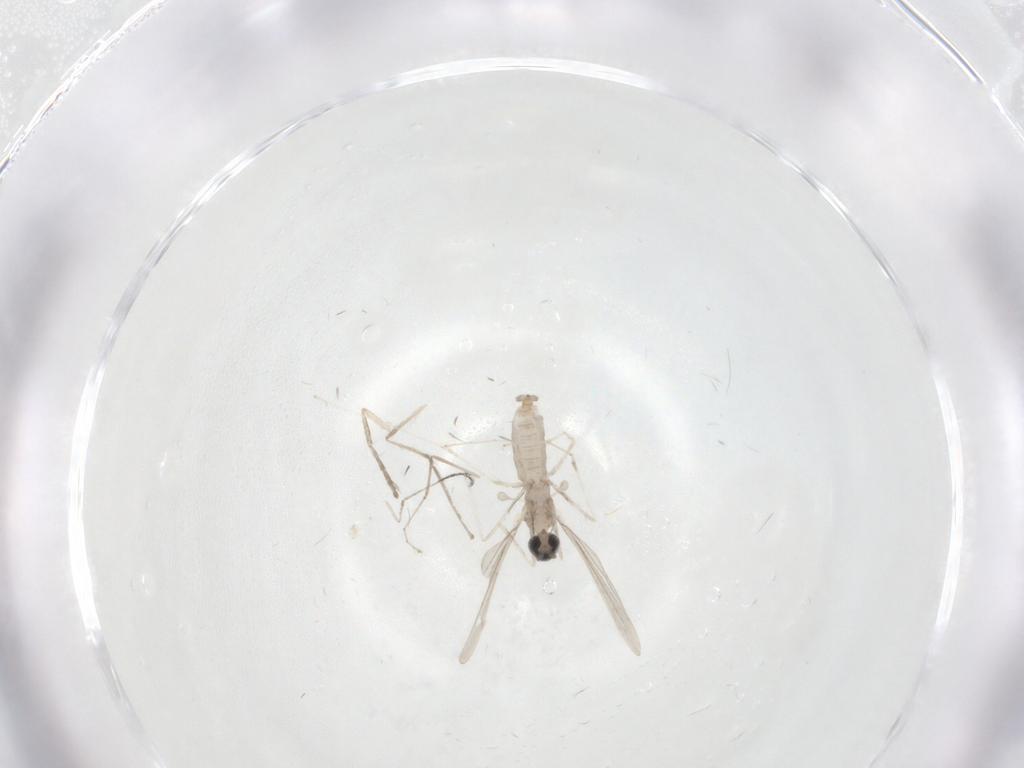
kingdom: Animalia
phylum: Arthropoda
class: Insecta
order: Diptera
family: Cecidomyiidae
